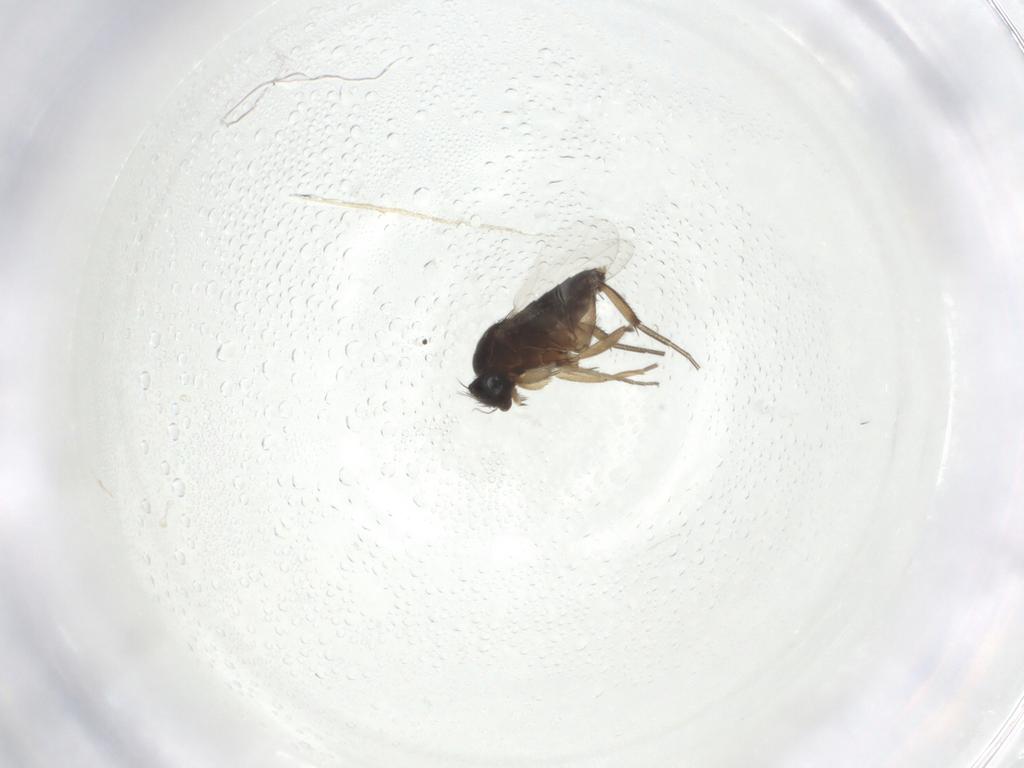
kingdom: Animalia
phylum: Arthropoda
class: Insecta
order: Diptera
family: Phoridae
